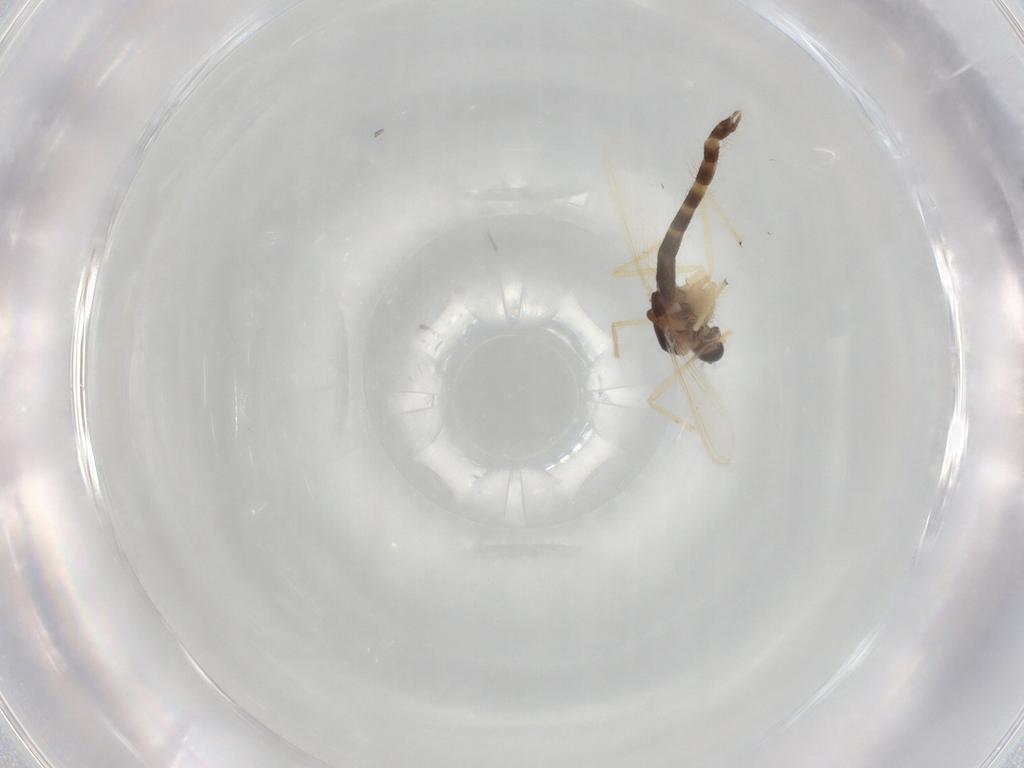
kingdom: Animalia
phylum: Arthropoda
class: Insecta
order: Diptera
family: Chironomidae
